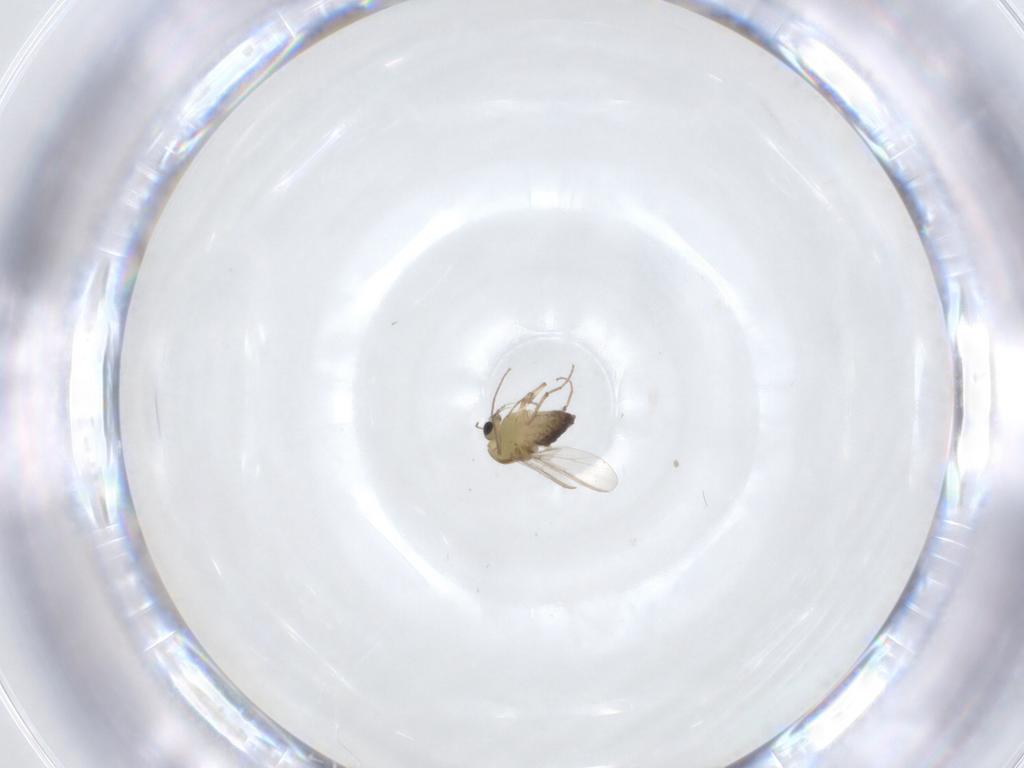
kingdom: Animalia
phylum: Arthropoda
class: Insecta
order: Diptera
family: Chironomidae
